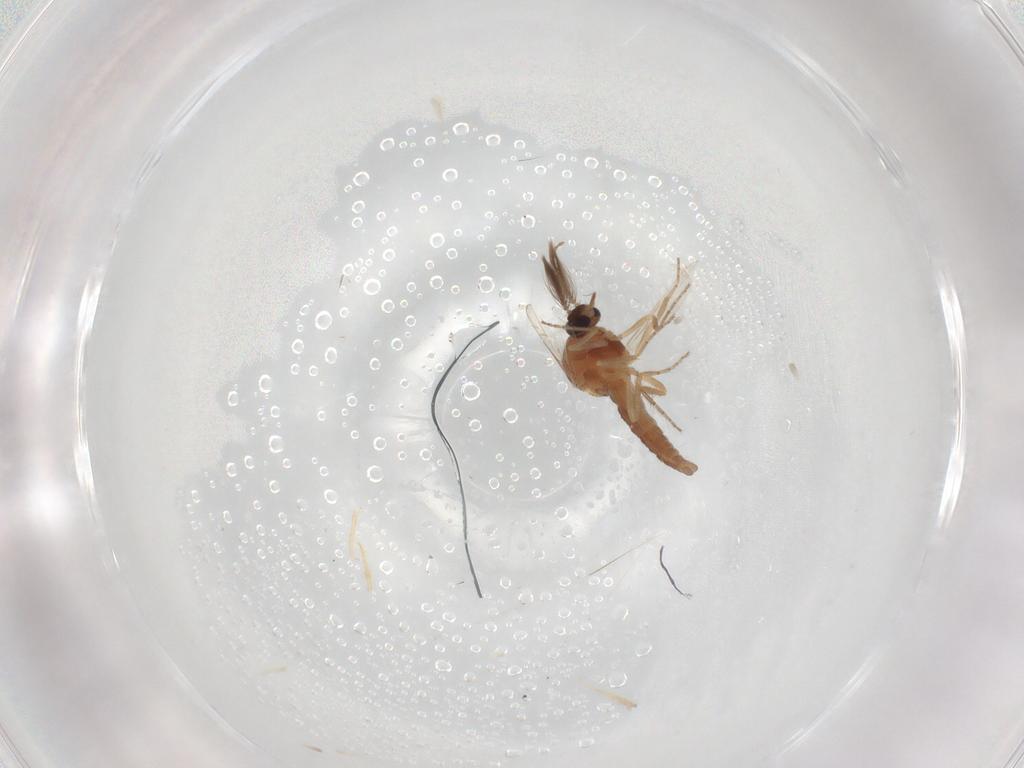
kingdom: Animalia
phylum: Arthropoda
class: Insecta
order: Diptera
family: Ceratopogonidae
